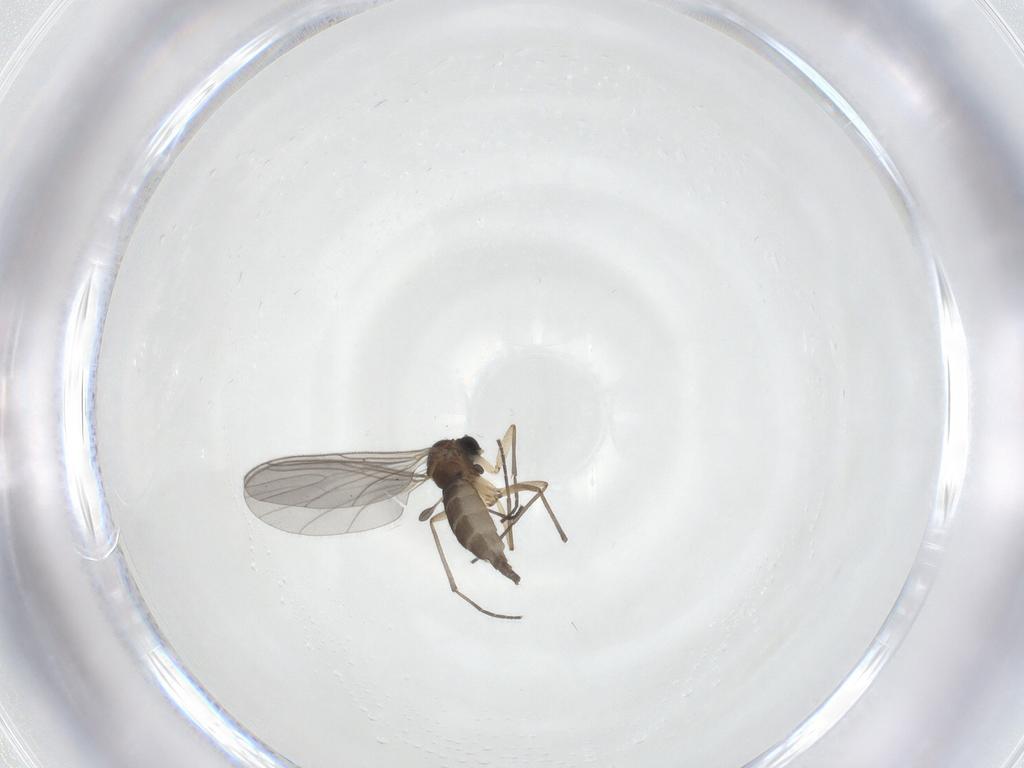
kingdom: Animalia
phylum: Arthropoda
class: Insecta
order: Diptera
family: Sciaridae
